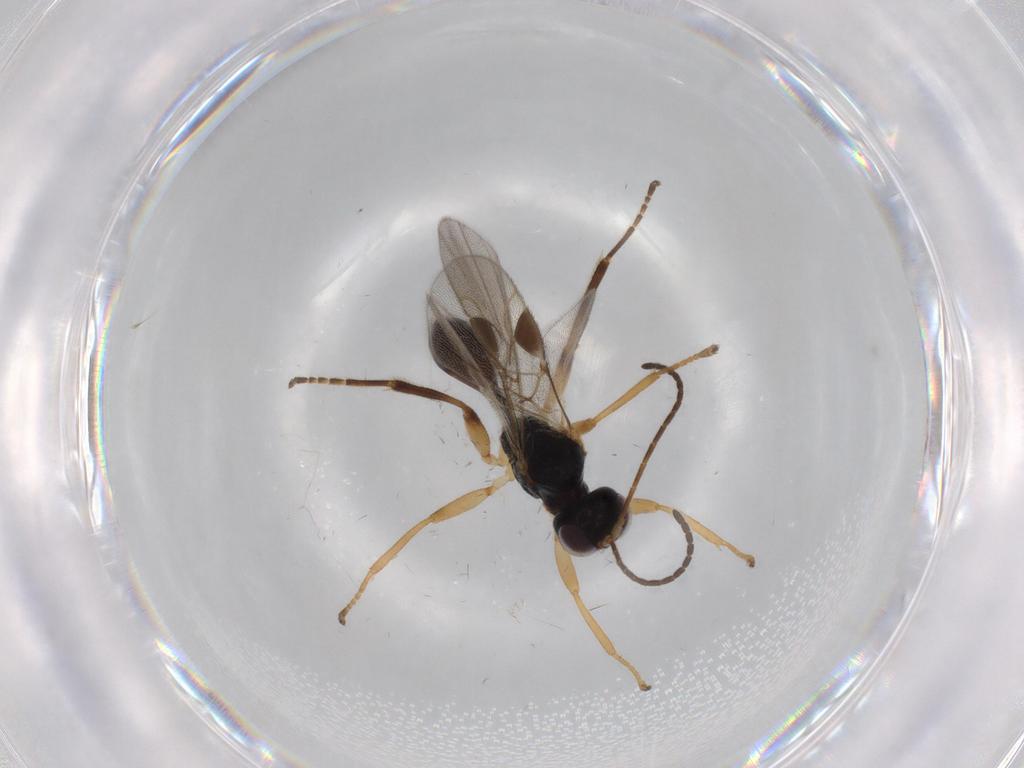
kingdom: Animalia
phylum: Arthropoda
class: Insecta
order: Hymenoptera
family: Braconidae
